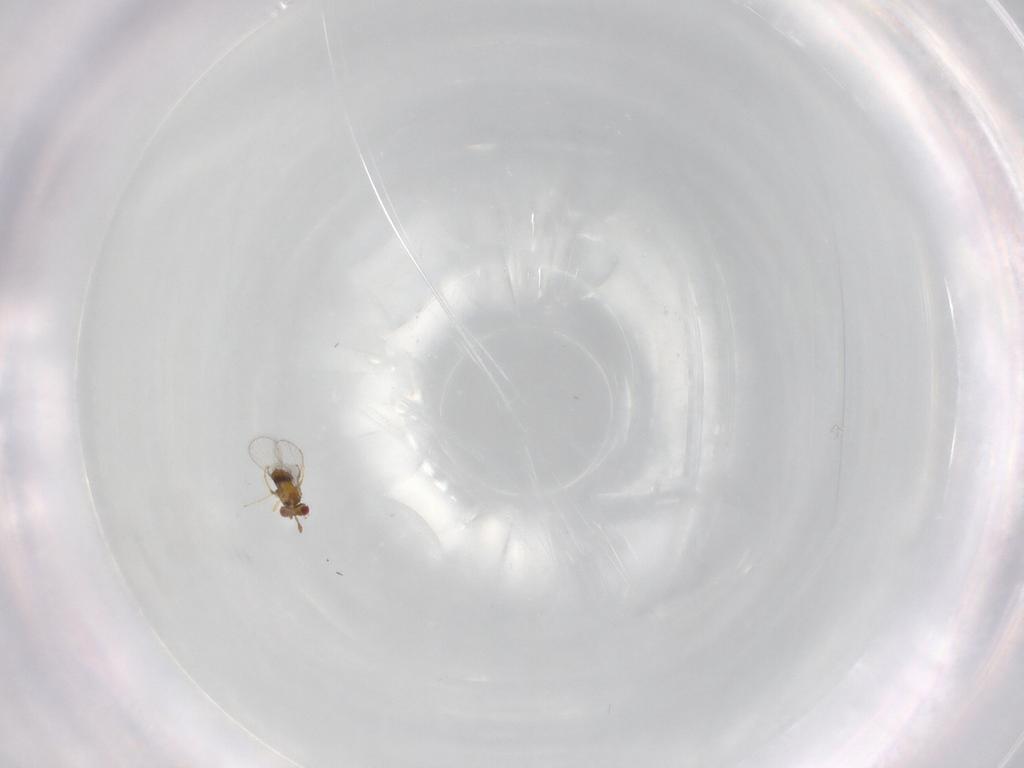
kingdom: Animalia
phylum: Arthropoda
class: Insecta
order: Hymenoptera
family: Trichogrammatidae
